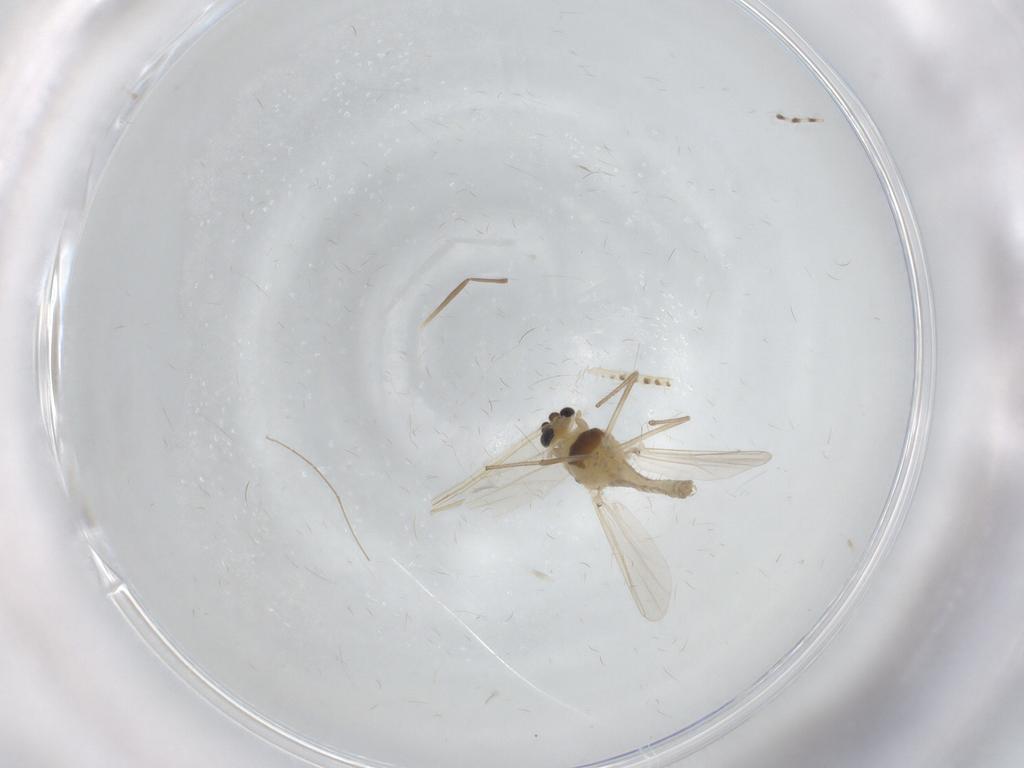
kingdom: Animalia
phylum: Arthropoda
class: Insecta
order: Diptera
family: Chironomidae
